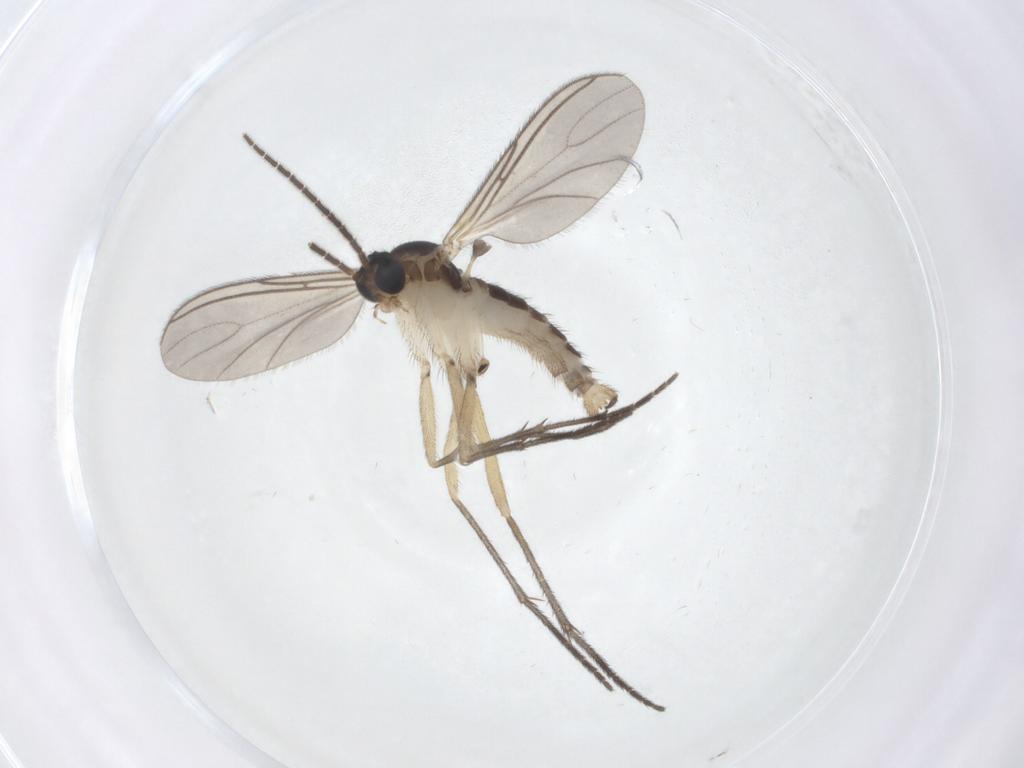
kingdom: Animalia
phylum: Arthropoda
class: Insecta
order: Diptera
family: Sciaridae
